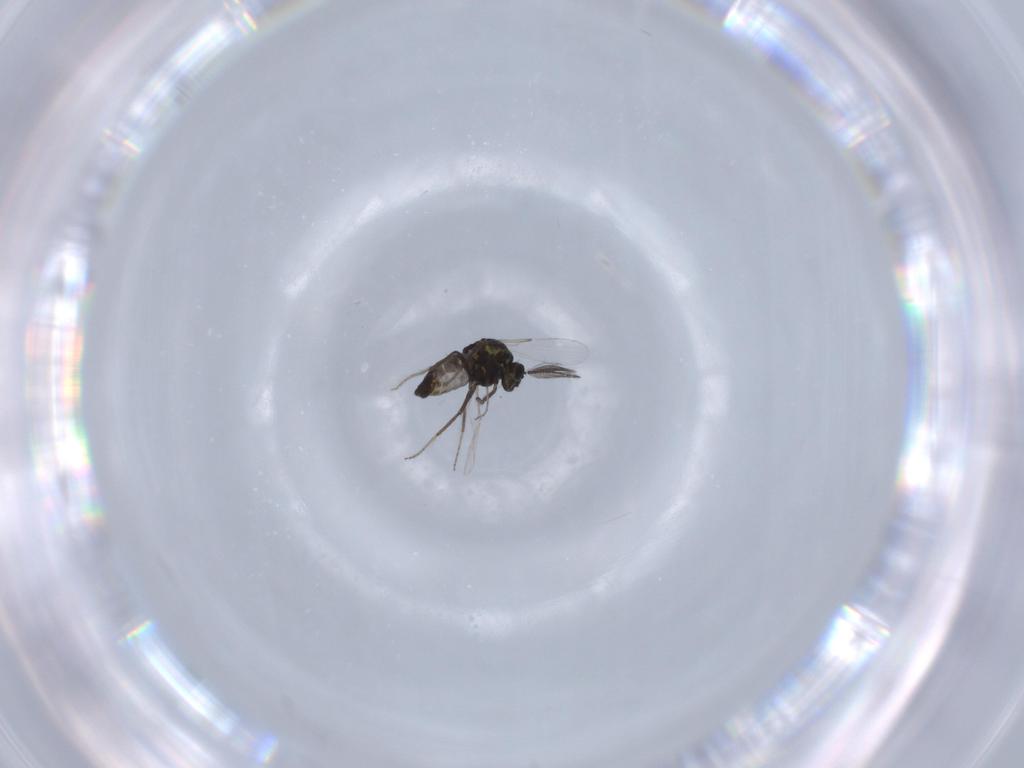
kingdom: Animalia
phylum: Arthropoda
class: Insecta
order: Diptera
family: Ceratopogonidae
